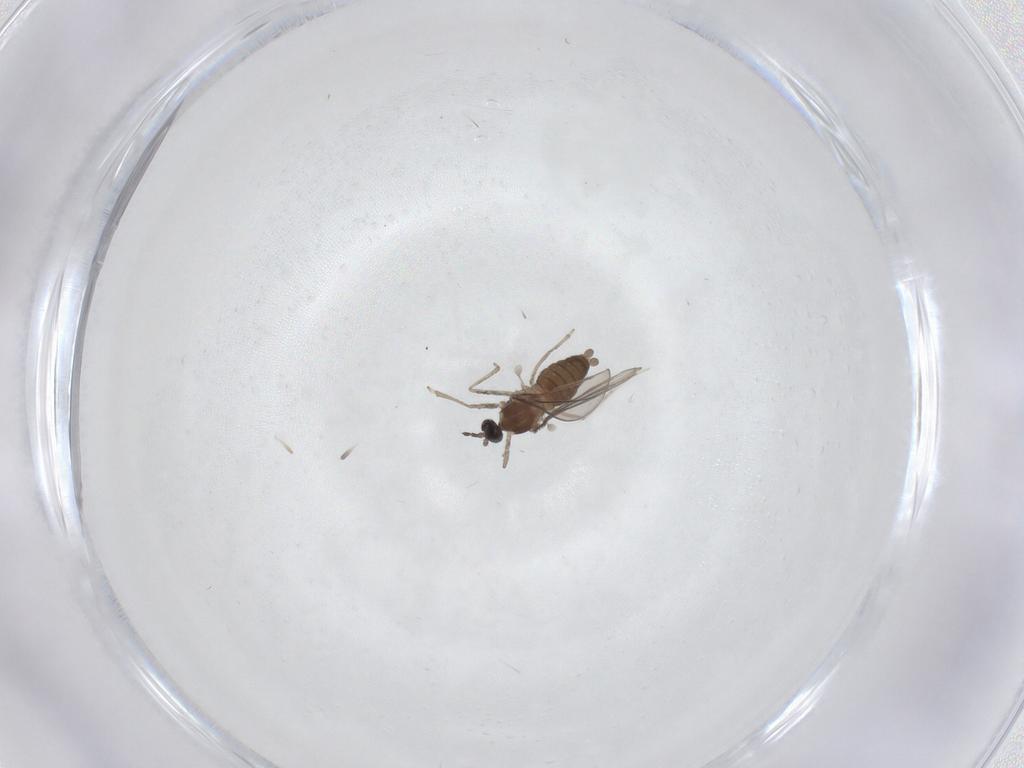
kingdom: Animalia
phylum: Arthropoda
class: Insecta
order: Diptera
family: Cecidomyiidae
